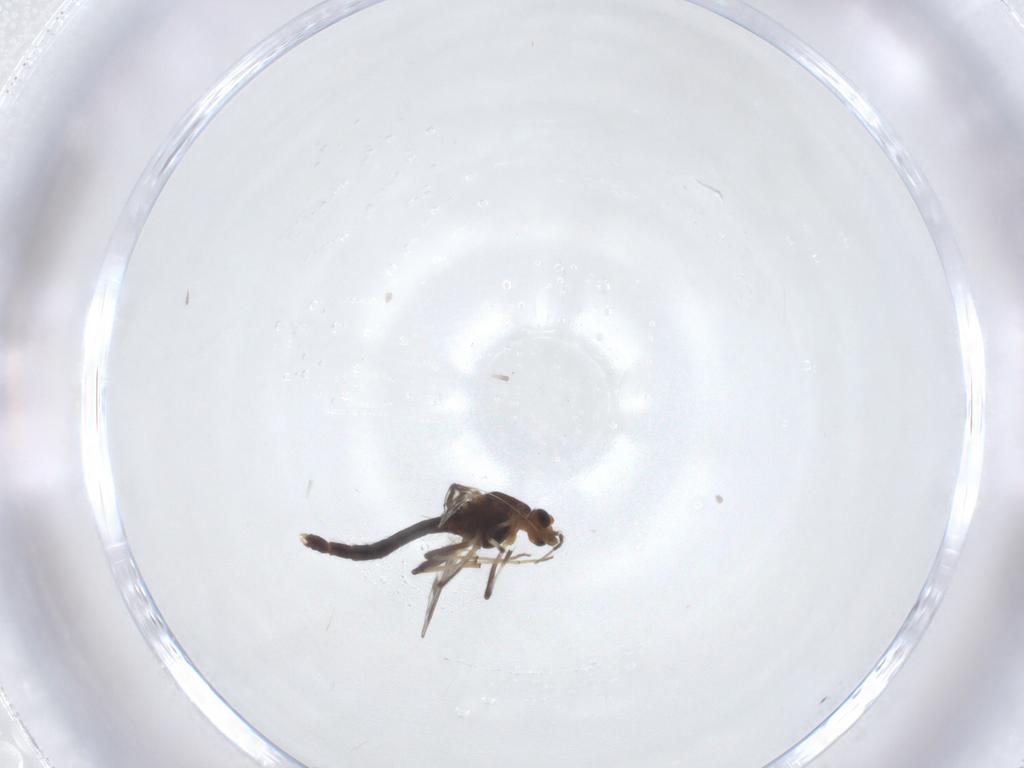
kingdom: Animalia
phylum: Arthropoda
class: Insecta
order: Diptera
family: Chironomidae
